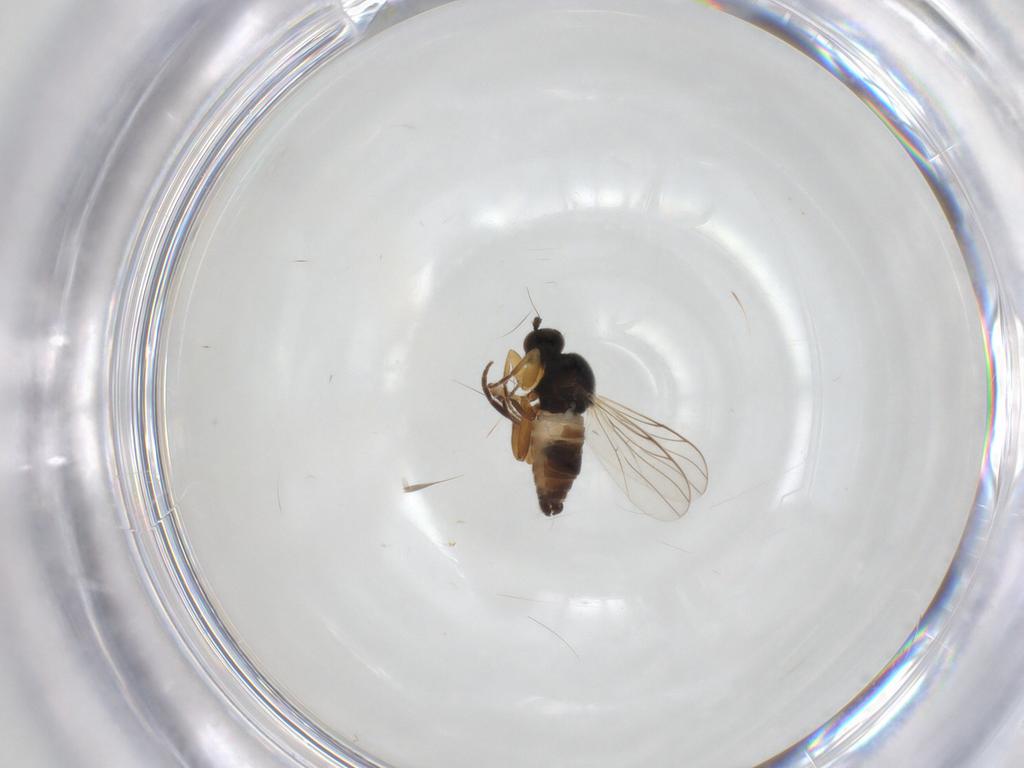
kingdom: Animalia
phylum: Arthropoda
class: Insecta
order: Diptera
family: Hybotidae
